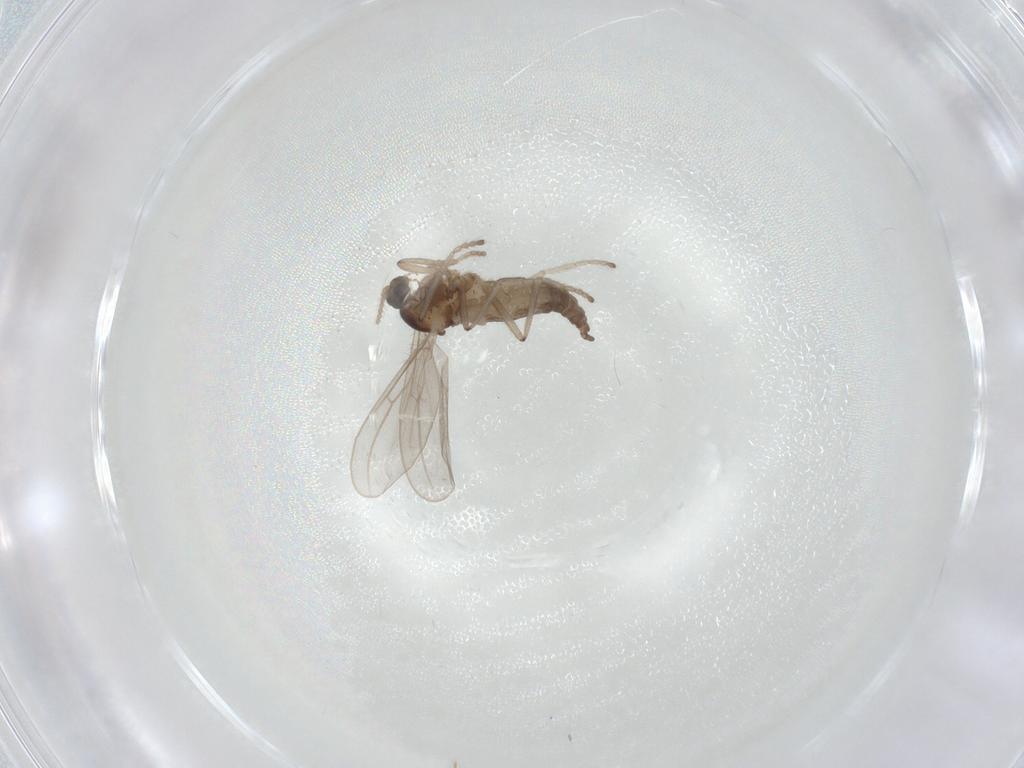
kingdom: Animalia
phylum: Arthropoda
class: Insecta
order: Diptera
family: Cecidomyiidae
